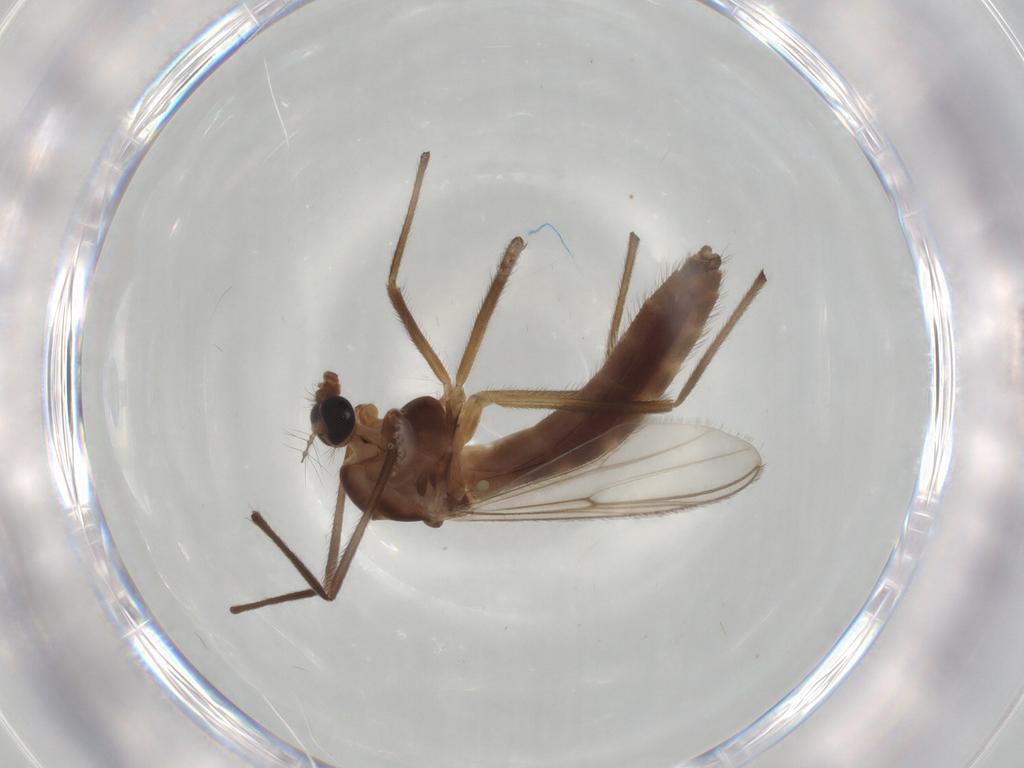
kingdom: Animalia
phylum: Arthropoda
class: Insecta
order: Diptera
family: Chironomidae
